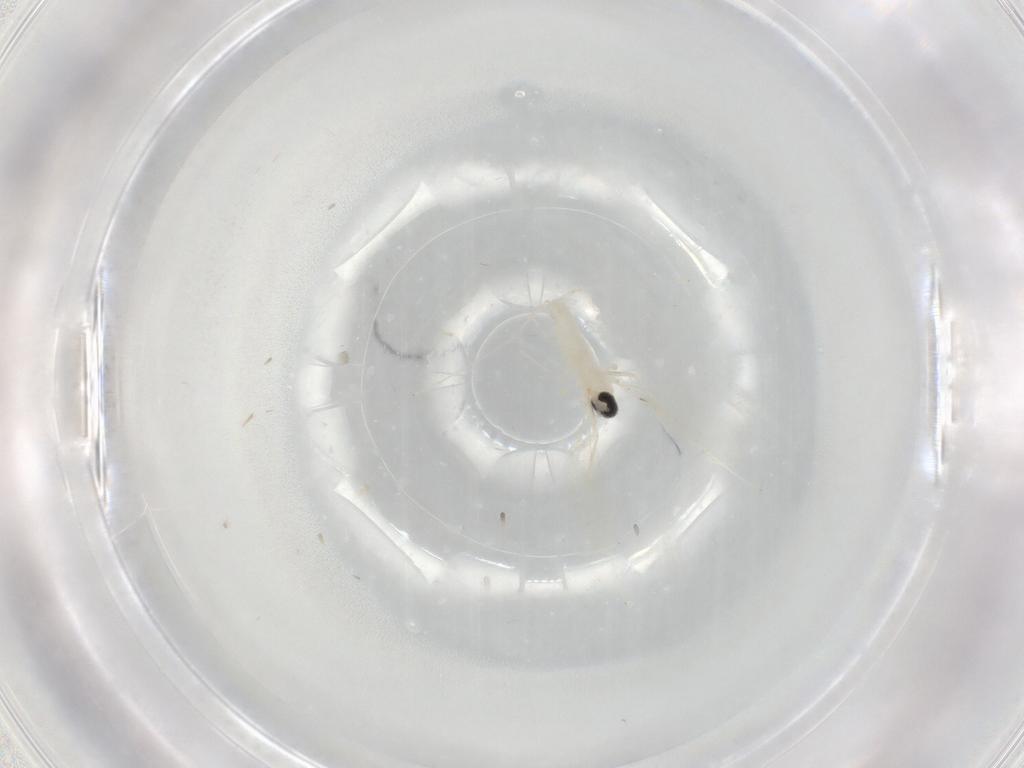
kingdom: Animalia
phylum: Arthropoda
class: Insecta
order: Diptera
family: Cecidomyiidae
